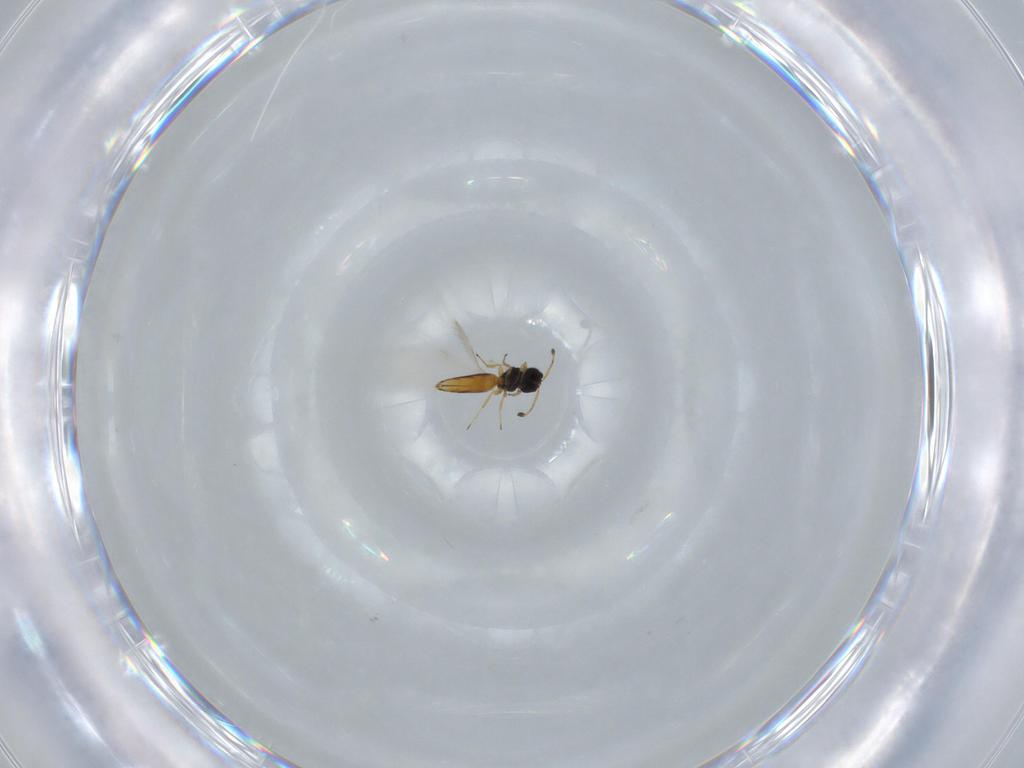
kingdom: Animalia
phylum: Arthropoda
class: Insecta
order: Hymenoptera
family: Scelionidae
